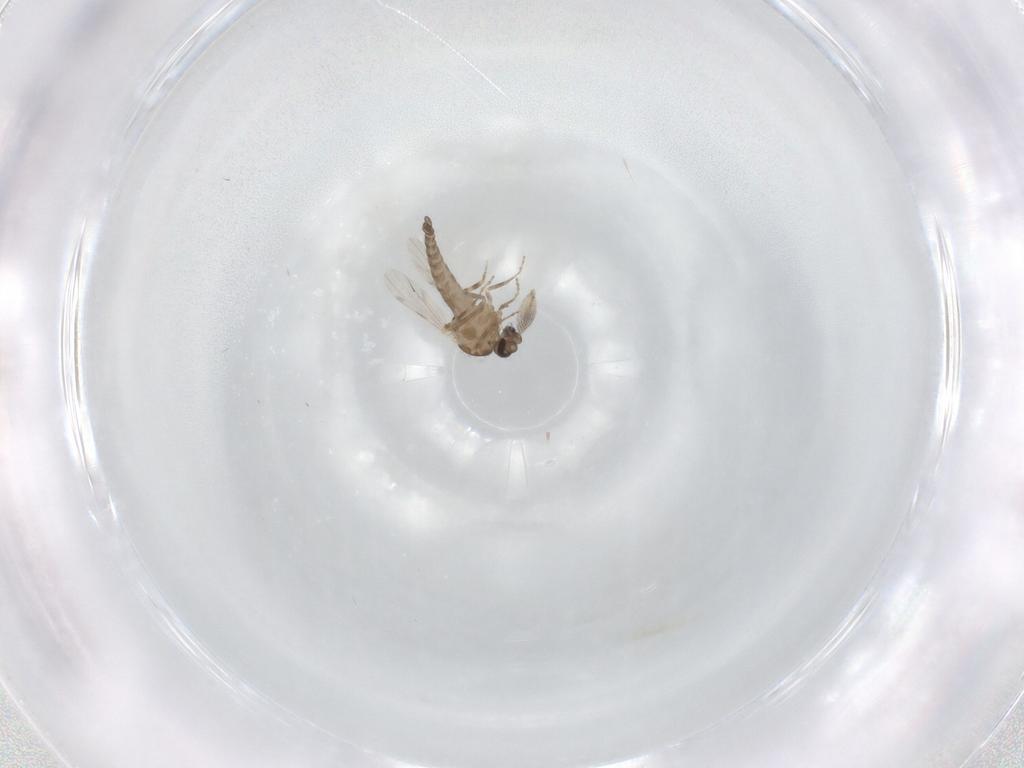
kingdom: Animalia
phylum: Arthropoda
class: Insecta
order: Diptera
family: Ceratopogonidae
